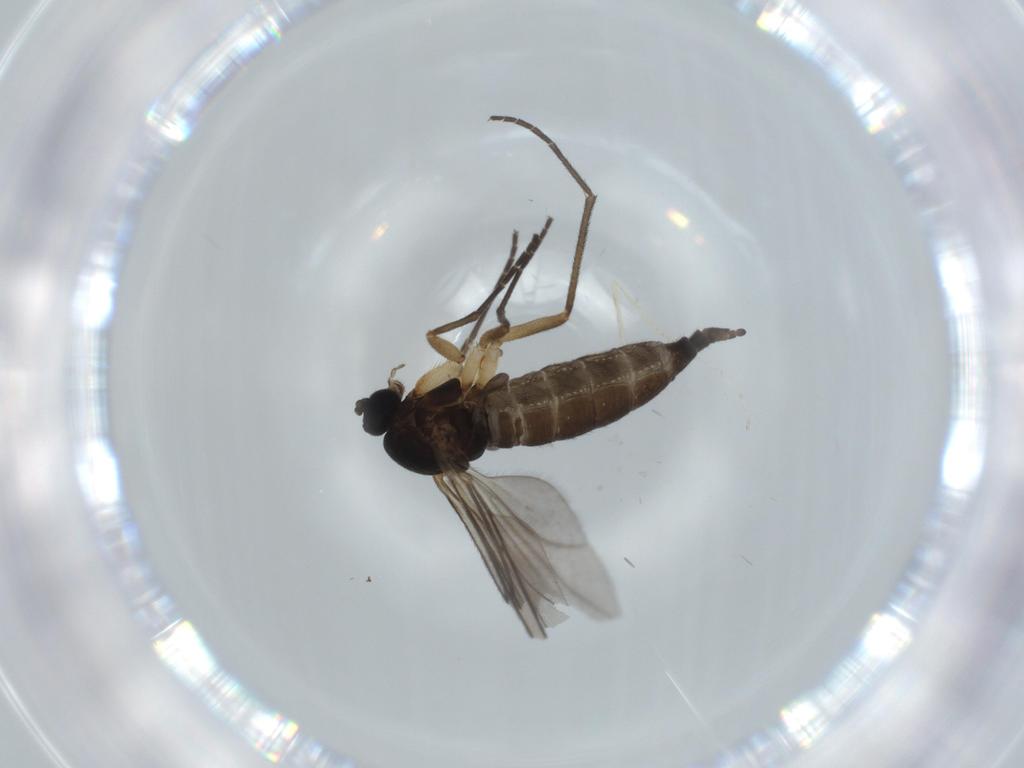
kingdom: Animalia
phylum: Arthropoda
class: Insecta
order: Diptera
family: Sciaridae
